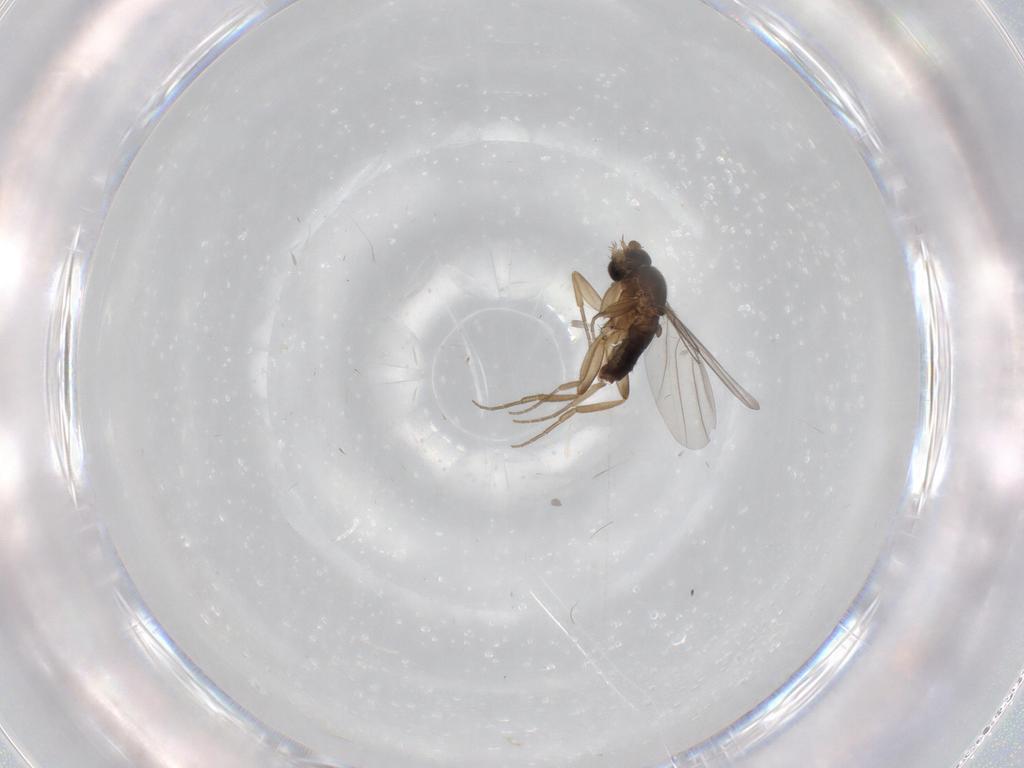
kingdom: Animalia
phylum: Arthropoda
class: Insecta
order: Diptera
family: Phoridae
